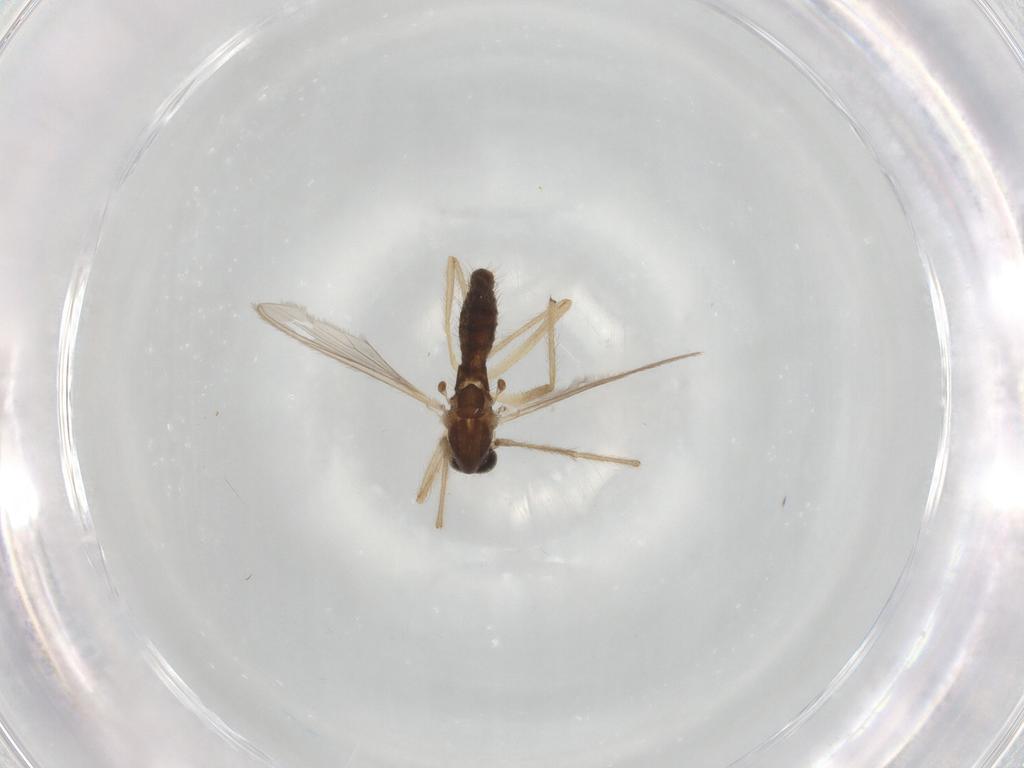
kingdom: Animalia
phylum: Arthropoda
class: Insecta
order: Diptera
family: Chironomidae
